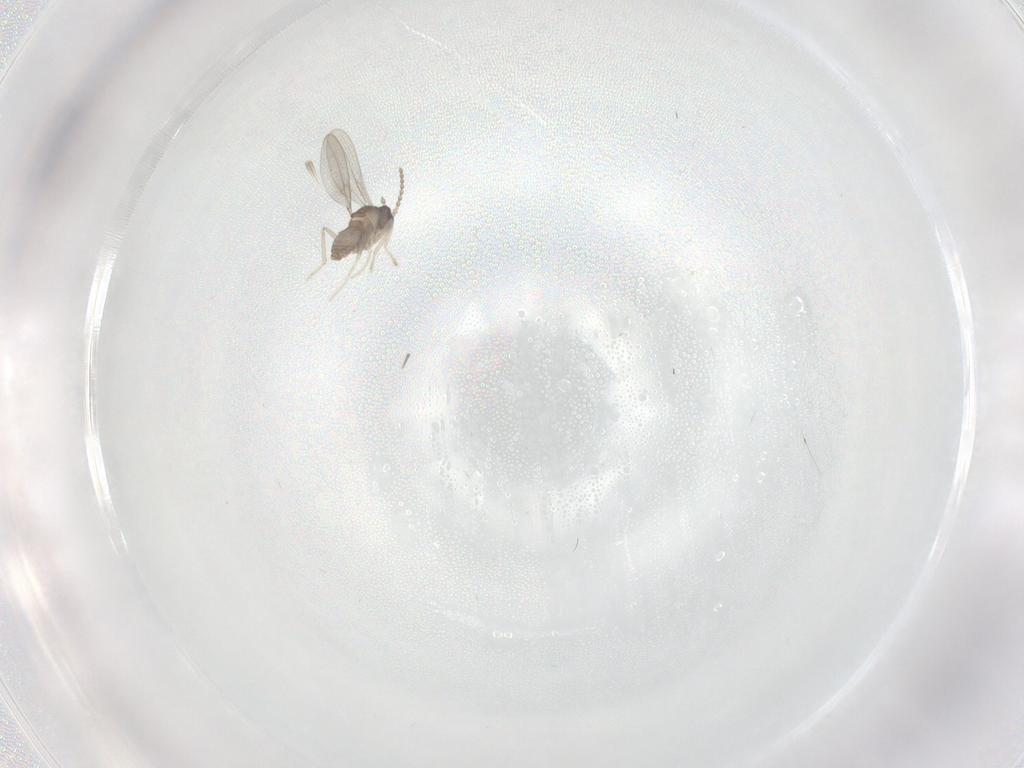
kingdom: Animalia
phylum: Arthropoda
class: Insecta
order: Diptera
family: Cecidomyiidae
